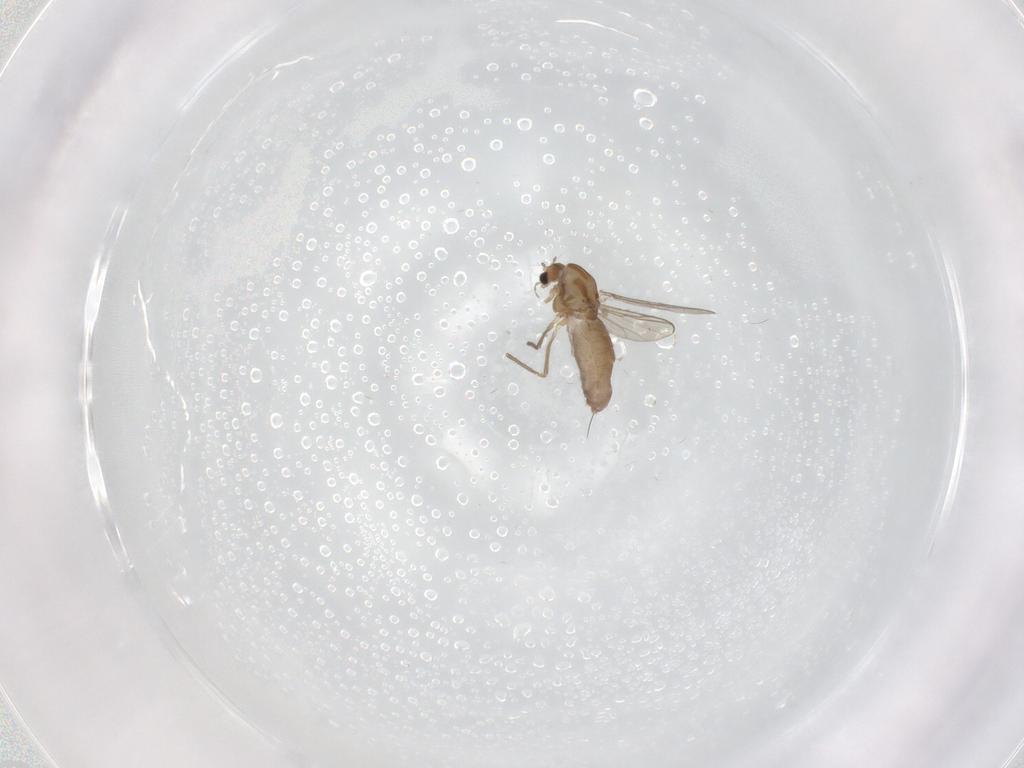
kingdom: Animalia
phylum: Arthropoda
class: Insecta
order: Diptera
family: Chironomidae
